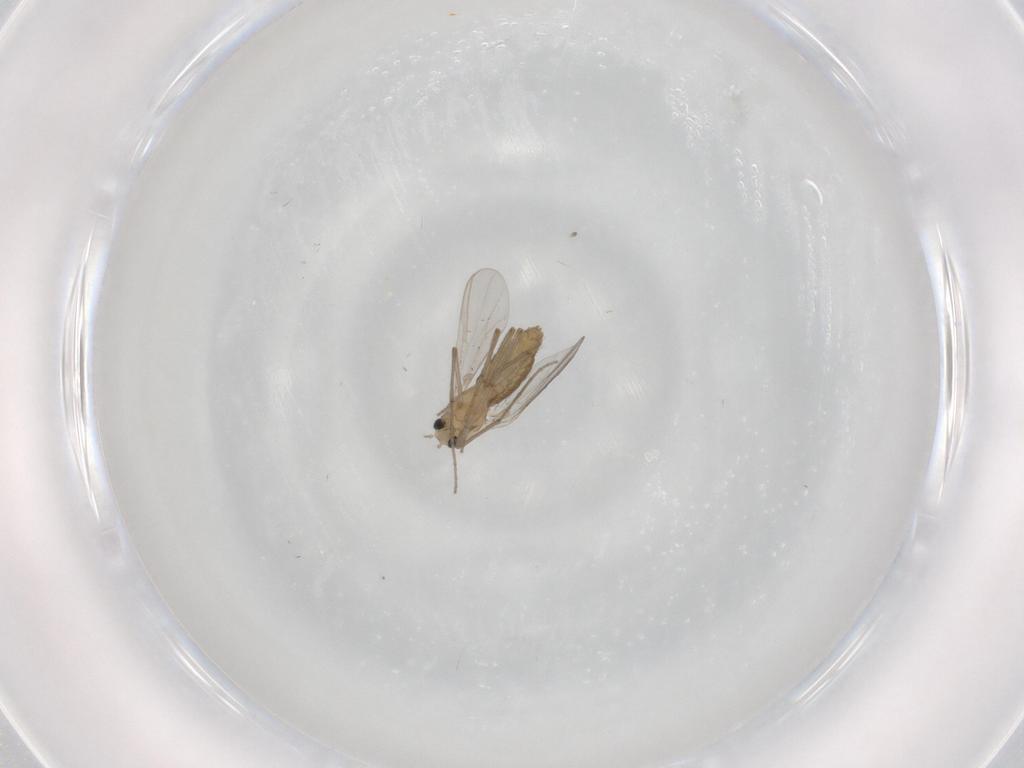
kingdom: Animalia
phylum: Arthropoda
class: Insecta
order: Diptera
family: Chironomidae
